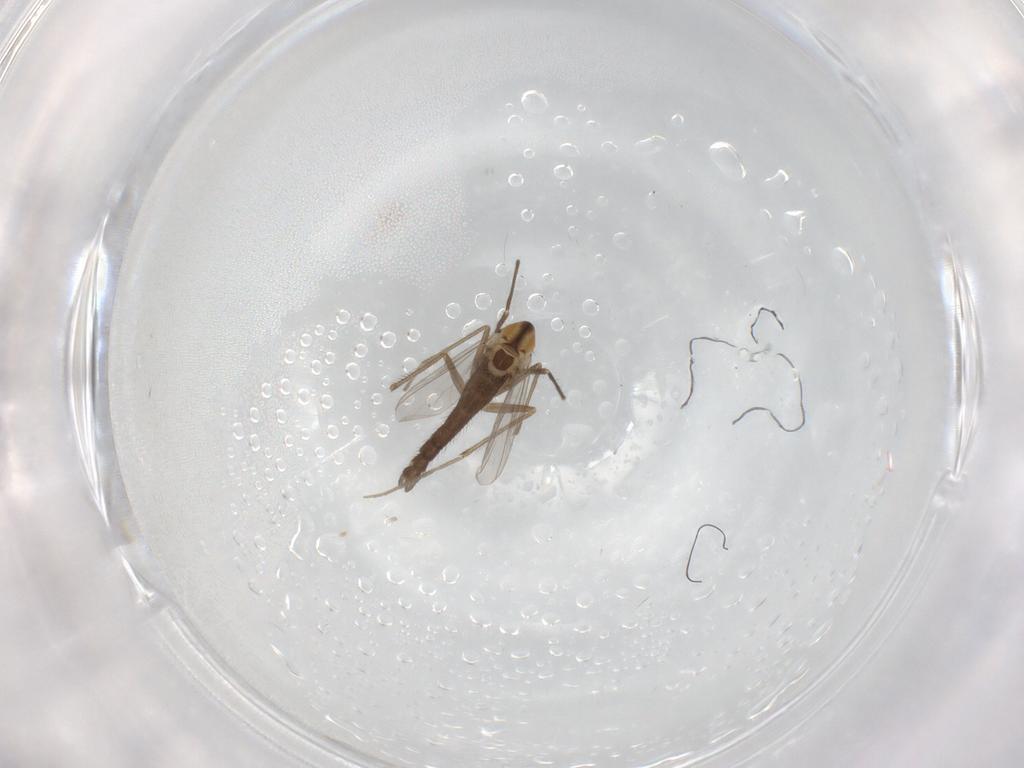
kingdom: Animalia
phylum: Arthropoda
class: Insecta
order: Diptera
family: Chironomidae
